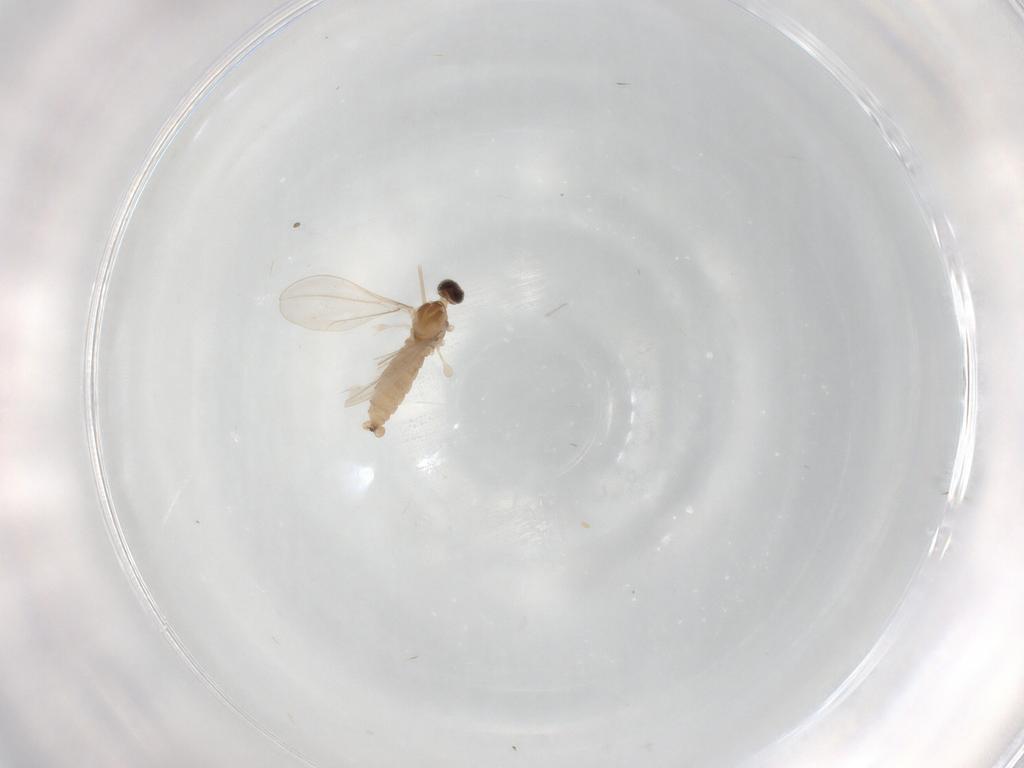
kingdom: Animalia
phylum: Arthropoda
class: Insecta
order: Diptera
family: Cecidomyiidae
